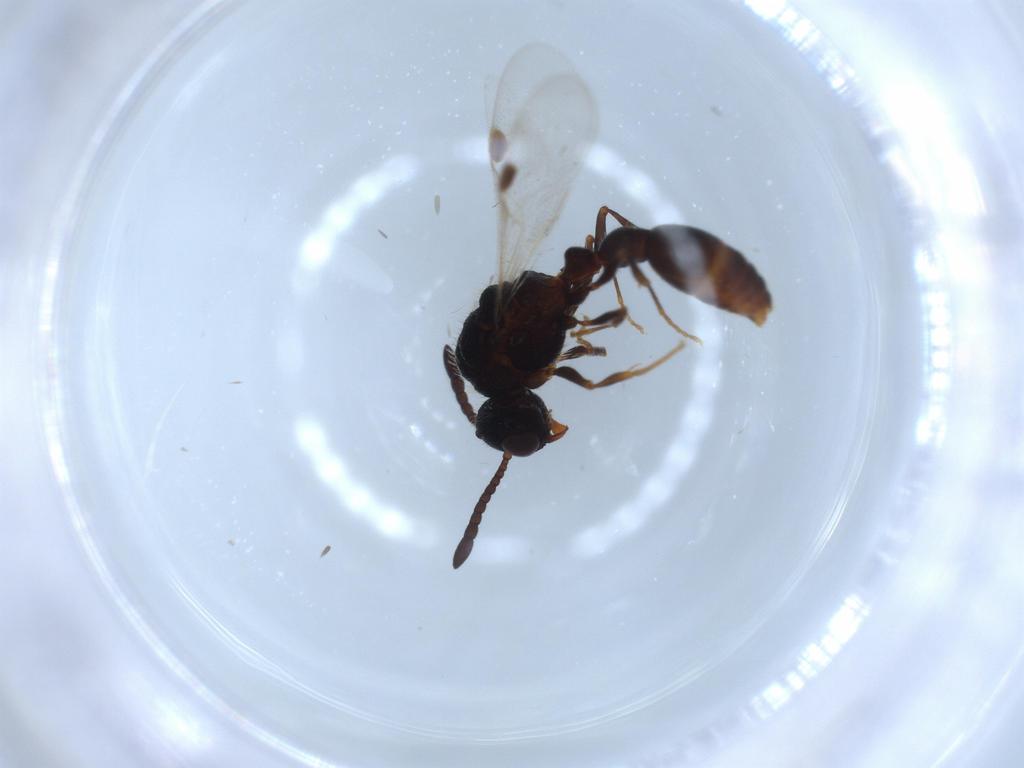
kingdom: Animalia
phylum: Arthropoda
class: Insecta
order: Hymenoptera
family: Formicidae
